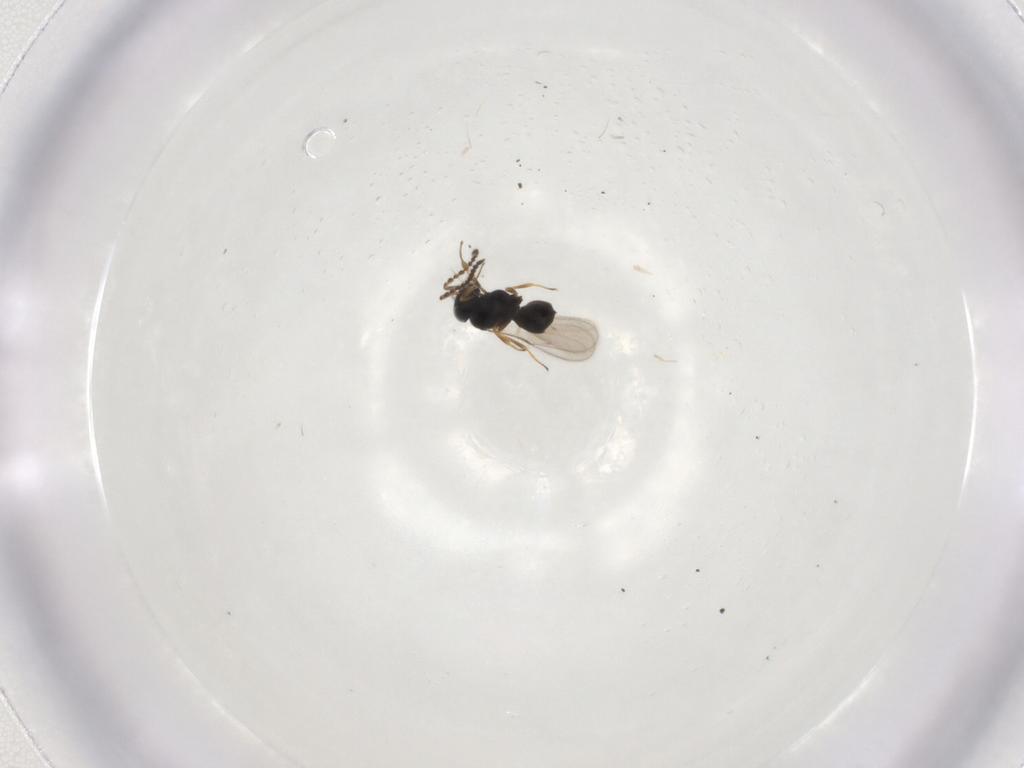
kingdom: Animalia
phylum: Arthropoda
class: Insecta
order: Hymenoptera
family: Scelionidae
